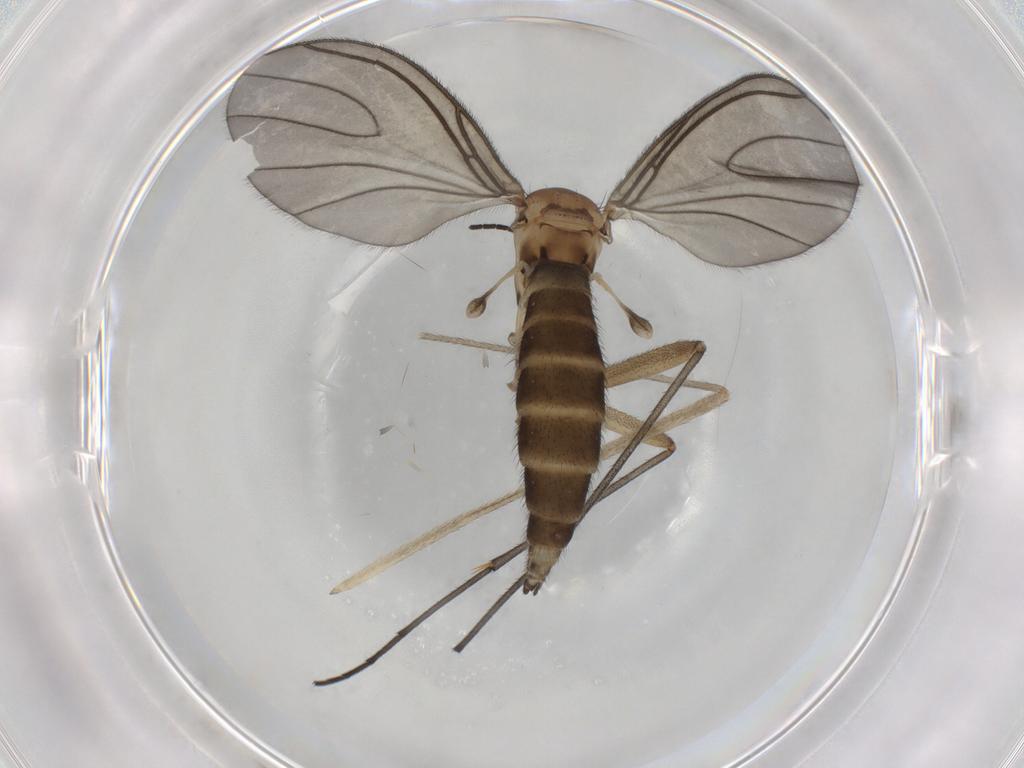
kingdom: Animalia
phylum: Arthropoda
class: Insecta
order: Diptera
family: Sciaridae
